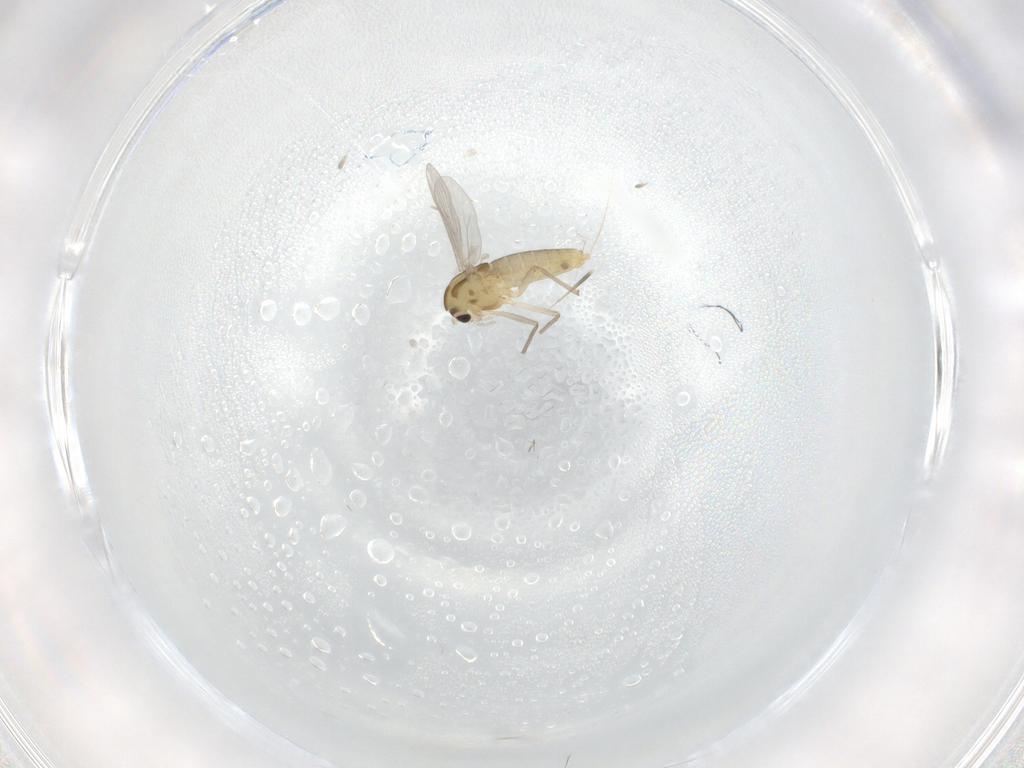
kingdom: Animalia
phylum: Arthropoda
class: Insecta
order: Diptera
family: Chironomidae
